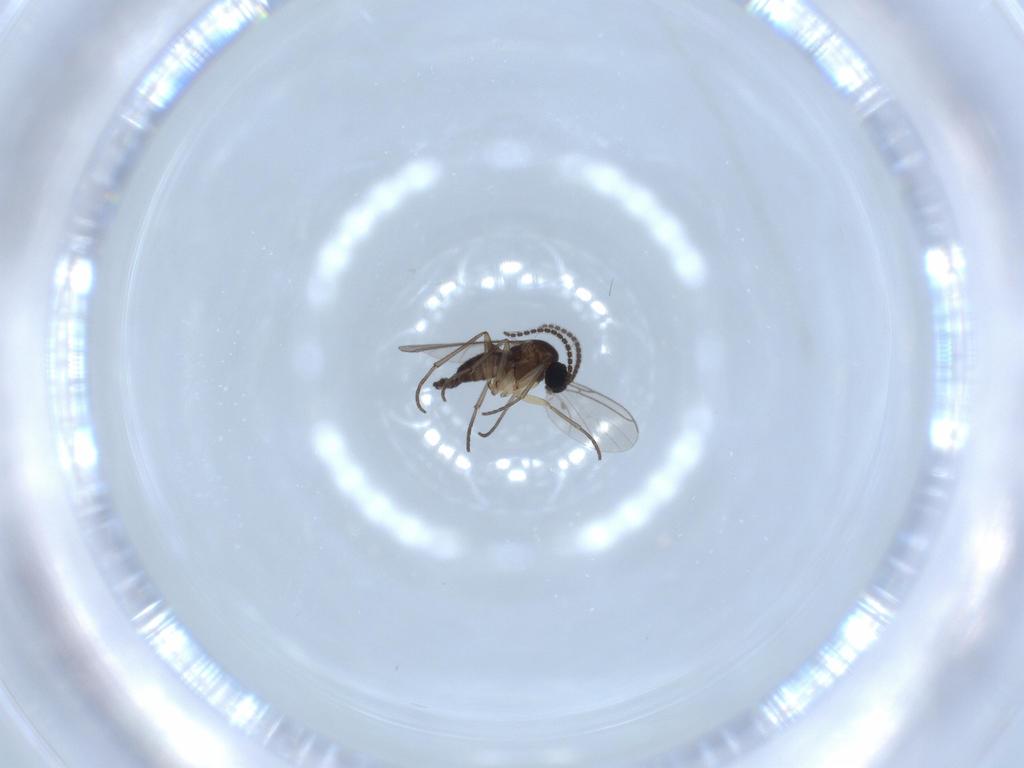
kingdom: Animalia
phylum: Arthropoda
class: Insecta
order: Diptera
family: Sciaridae
